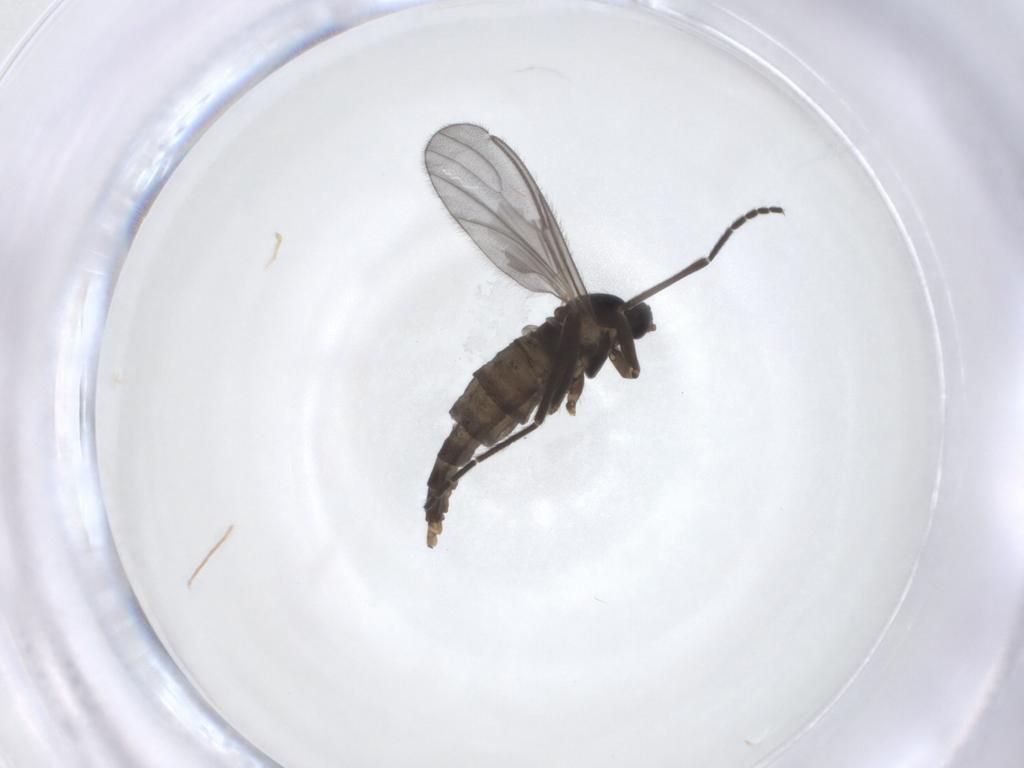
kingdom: Animalia
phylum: Arthropoda
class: Insecta
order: Diptera
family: Cecidomyiidae
